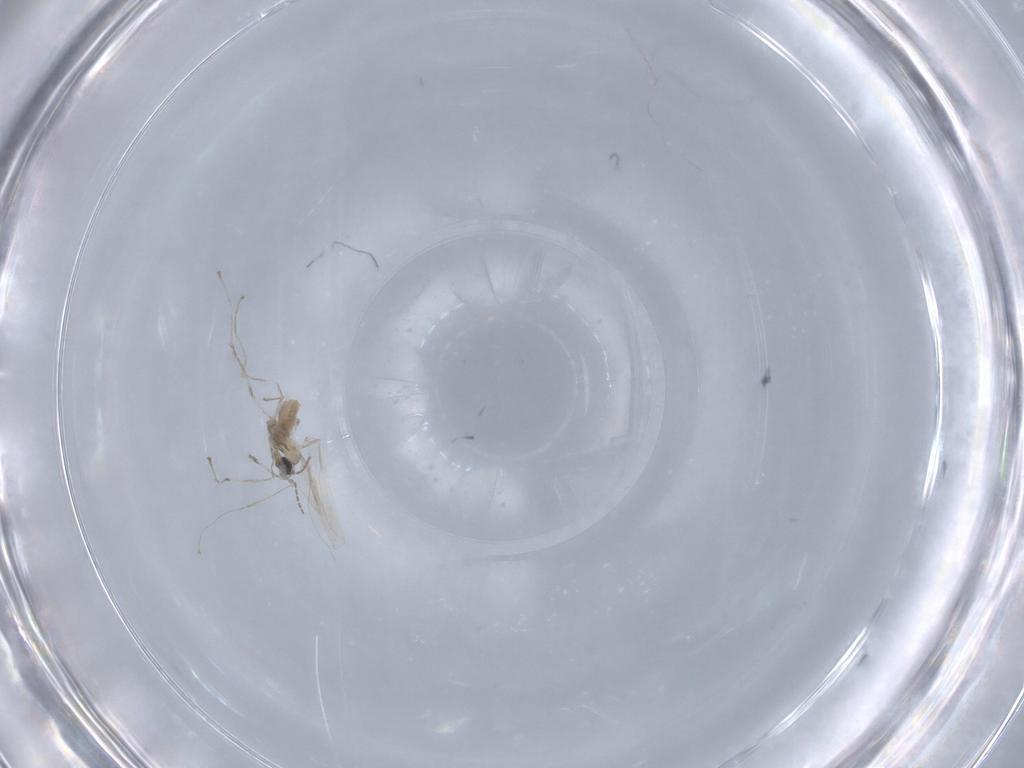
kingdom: Animalia
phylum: Arthropoda
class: Insecta
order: Diptera
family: Cecidomyiidae
